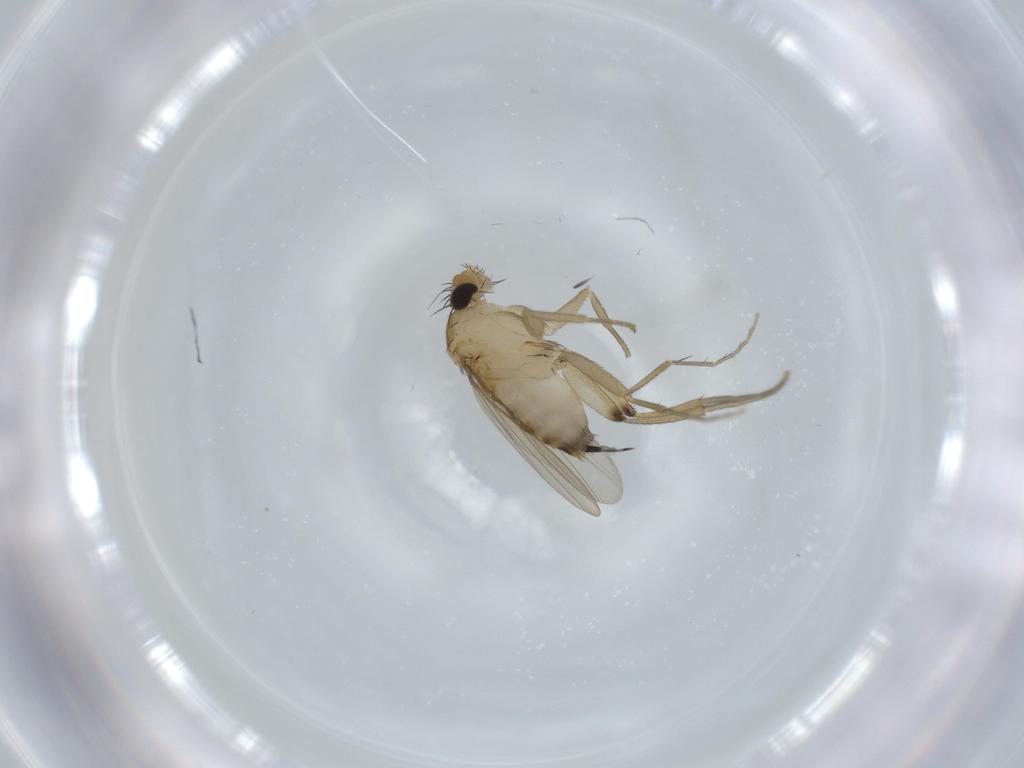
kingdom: Animalia
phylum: Arthropoda
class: Insecta
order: Diptera
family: Phoridae
